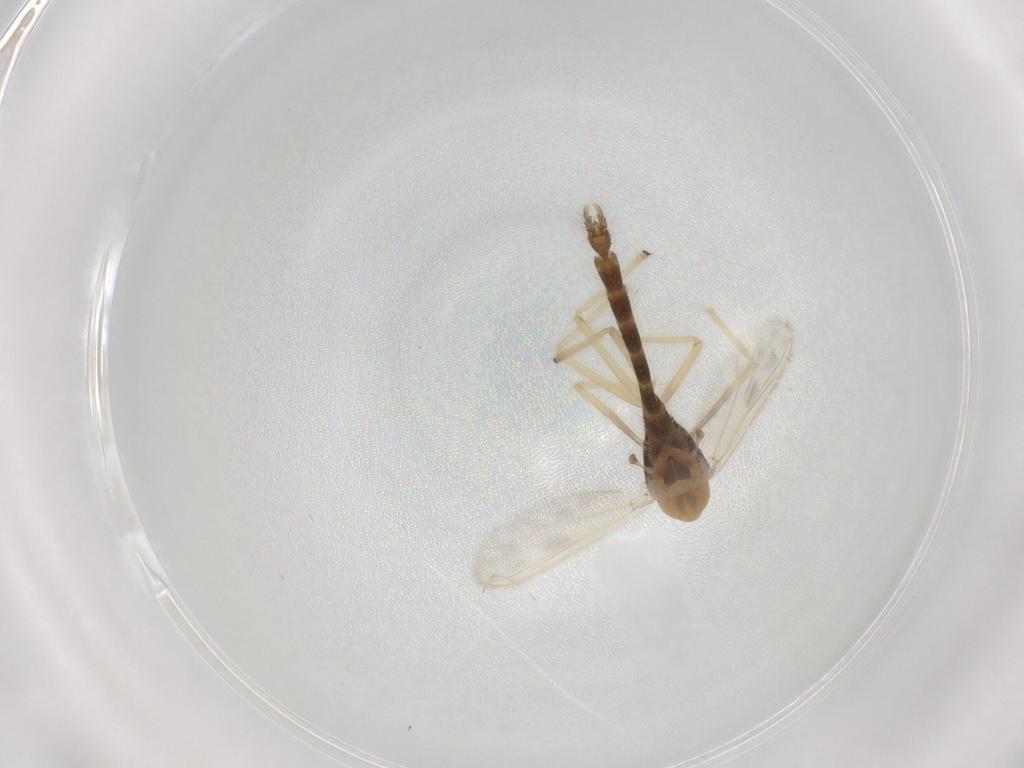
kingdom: Animalia
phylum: Arthropoda
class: Insecta
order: Diptera
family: Chironomidae
